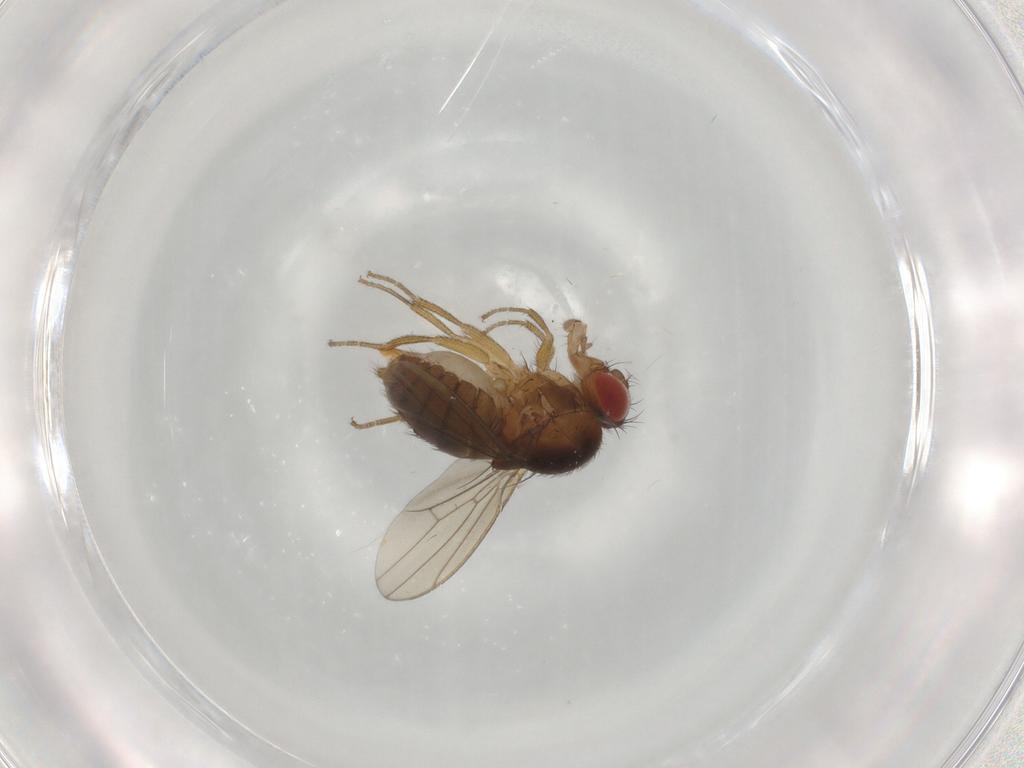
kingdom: Animalia
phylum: Arthropoda
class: Insecta
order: Diptera
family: Drosophilidae
